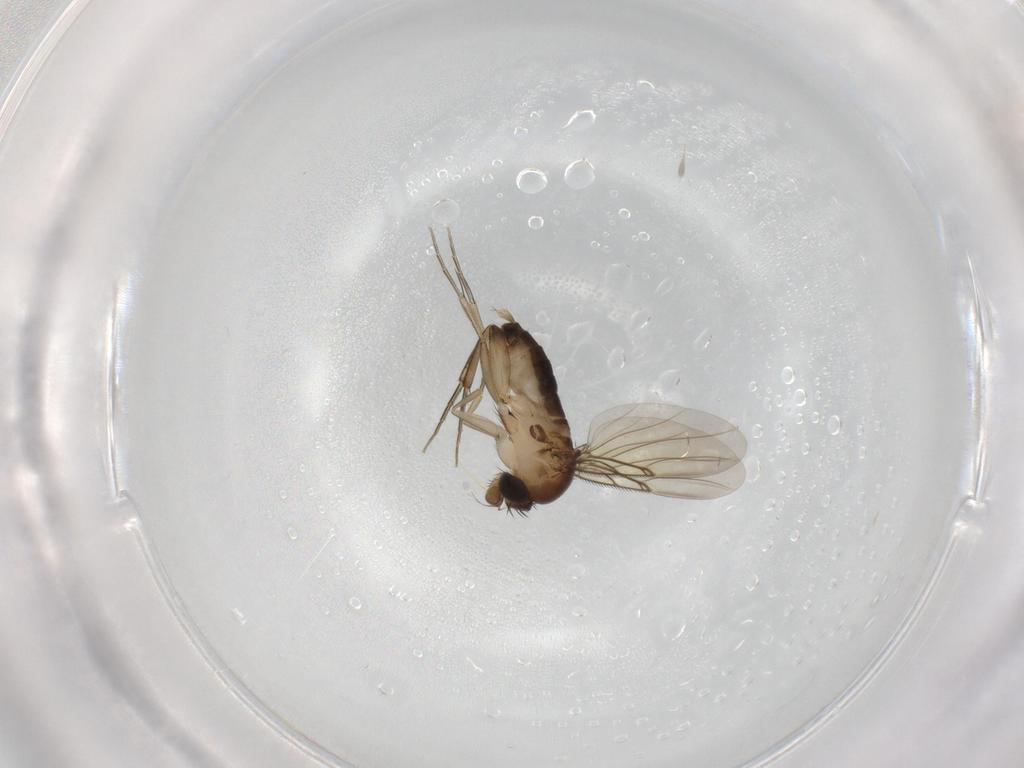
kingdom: Animalia
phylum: Arthropoda
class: Insecta
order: Diptera
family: Phoridae
